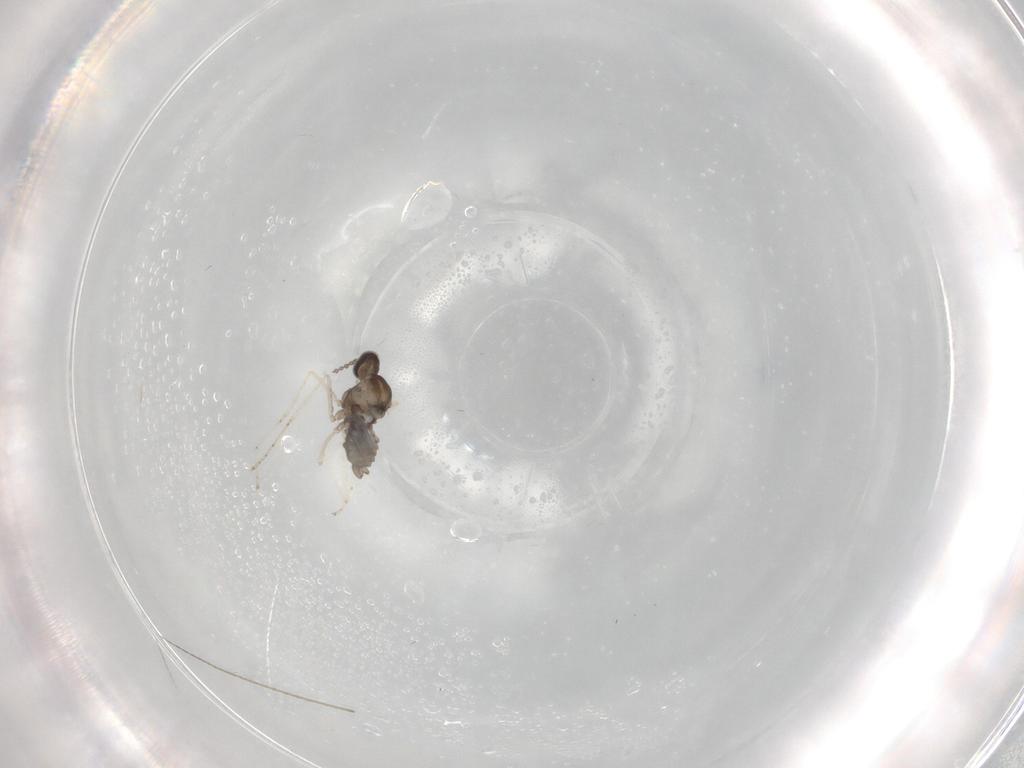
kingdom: Animalia
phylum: Arthropoda
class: Insecta
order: Diptera
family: Cecidomyiidae
